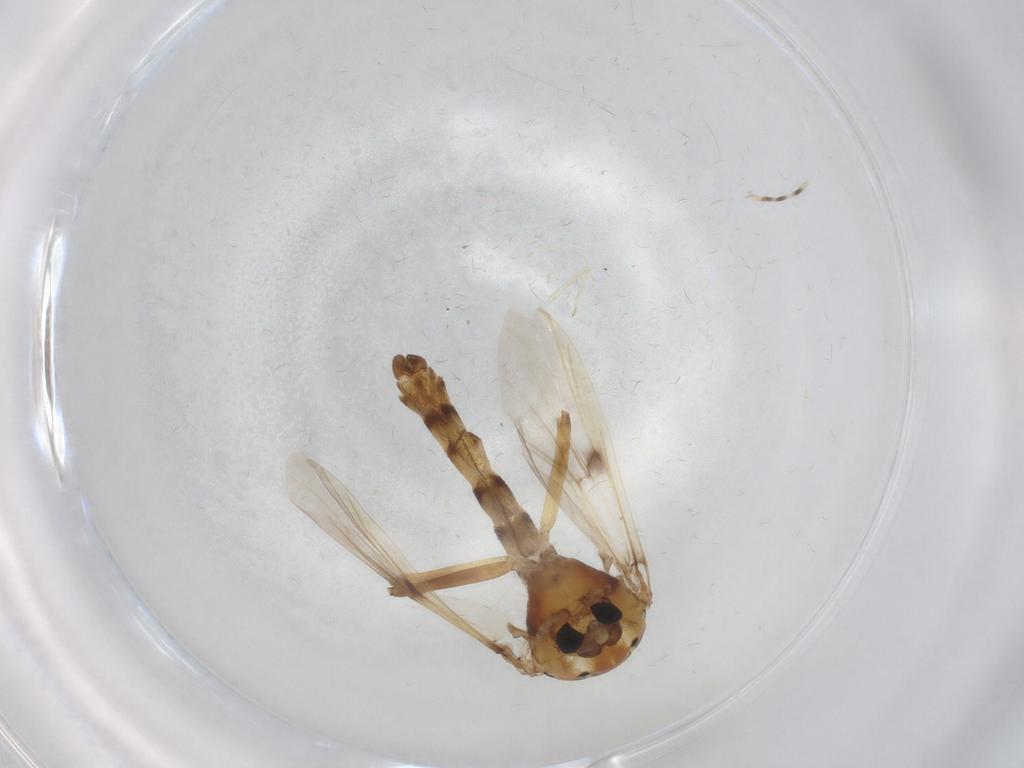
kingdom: Animalia
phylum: Arthropoda
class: Insecta
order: Diptera
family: Chironomidae
